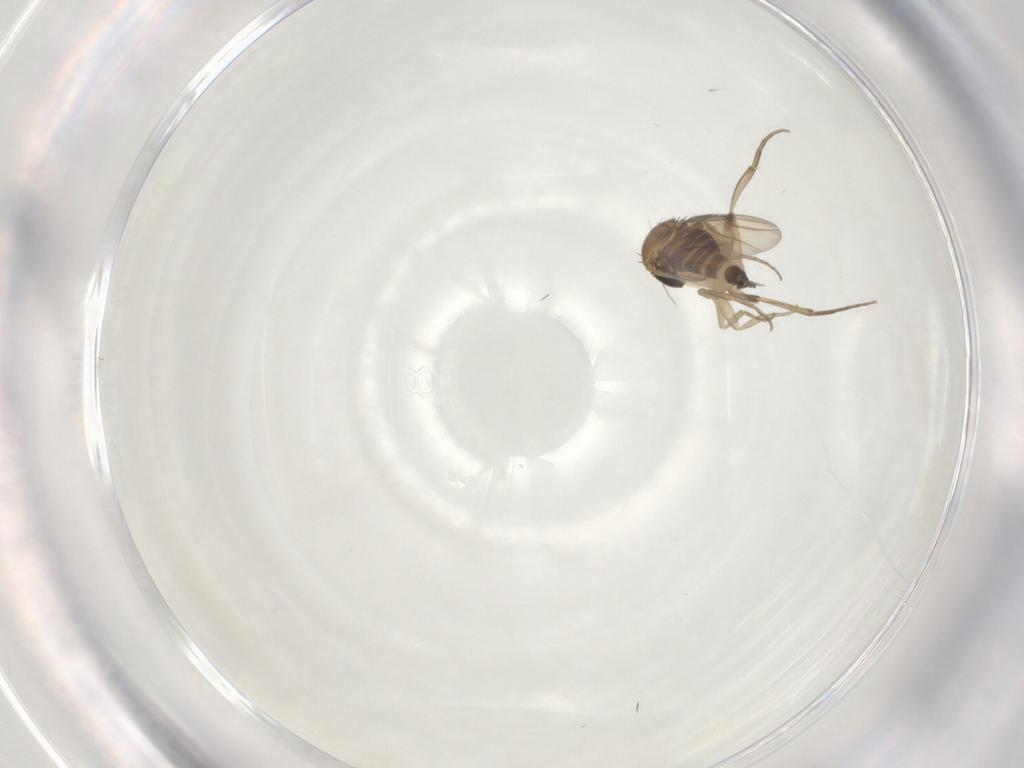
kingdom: Animalia
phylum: Arthropoda
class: Insecta
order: Diptera
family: Phoridae
